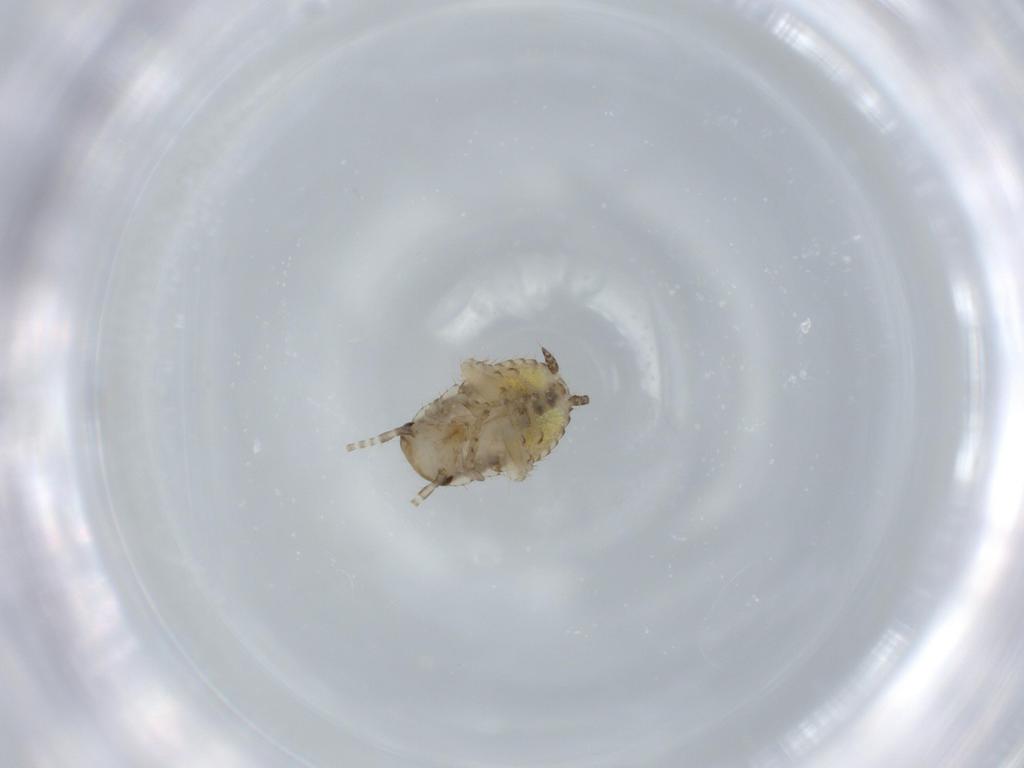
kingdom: Animalia
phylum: Arthropoda
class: Insecta
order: Blattodea
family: Ectobiidae
